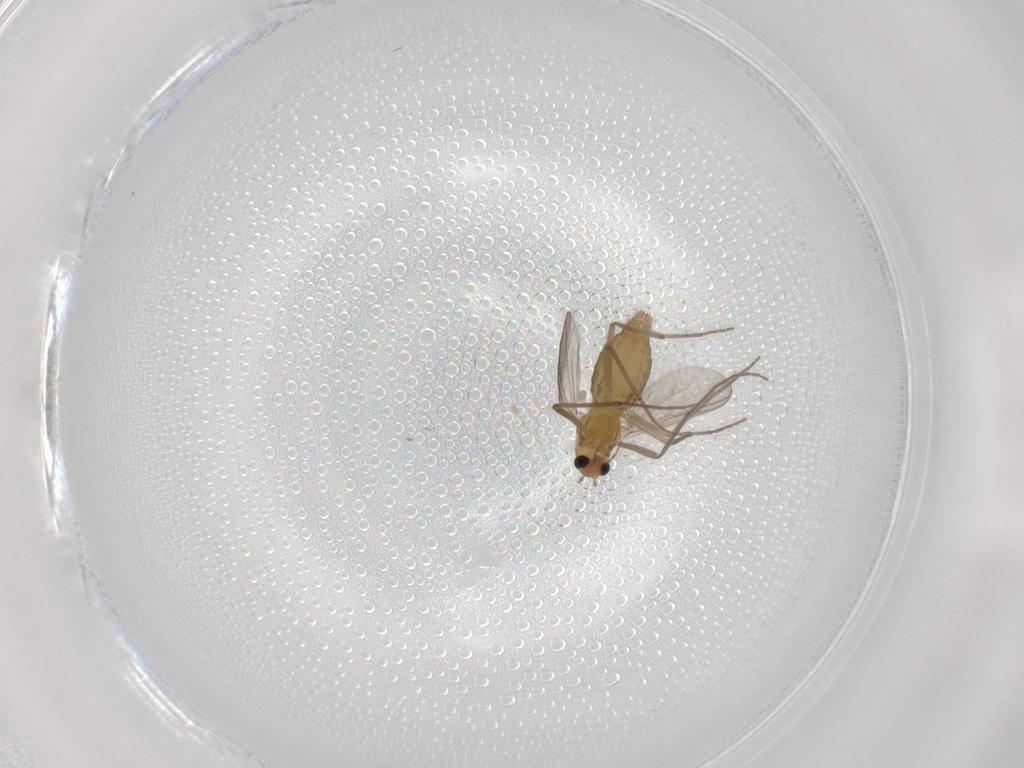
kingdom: Animalia
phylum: Arthropoda
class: Insecta
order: Diptera
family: Chironomidae
